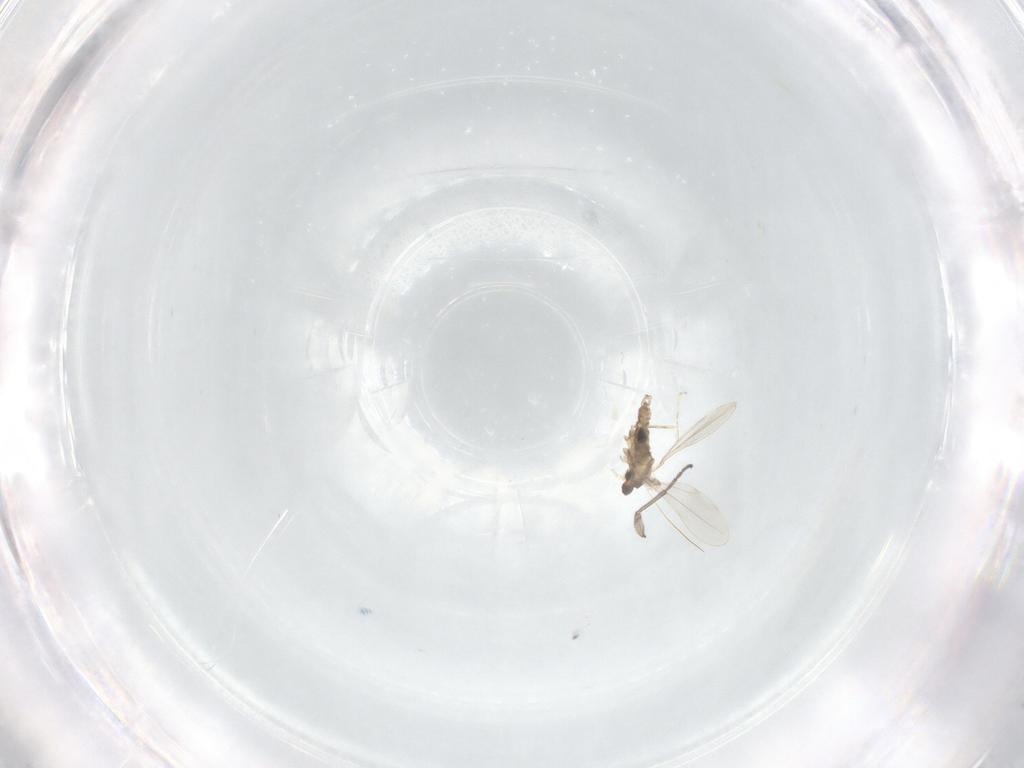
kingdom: Animalia
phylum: Arthropoda
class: Insecta
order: Diptera
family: Cecidomyiidae
